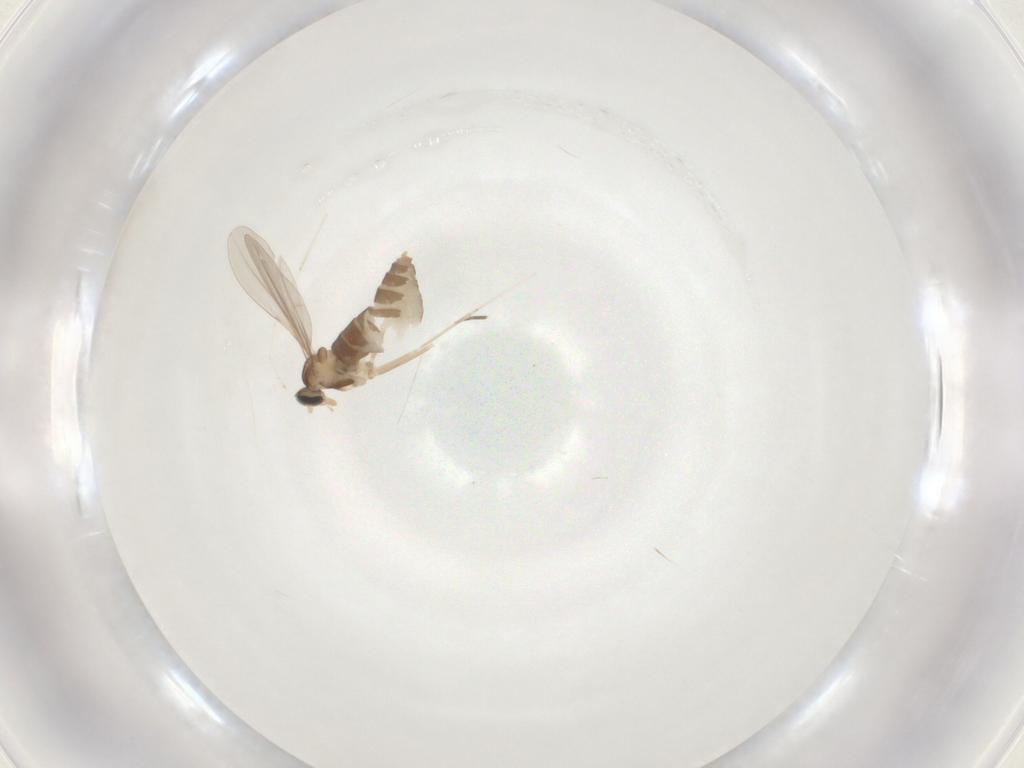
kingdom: Animalia
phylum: Arthropoda
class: Insecta
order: Diptera
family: Cecidomyiidae
